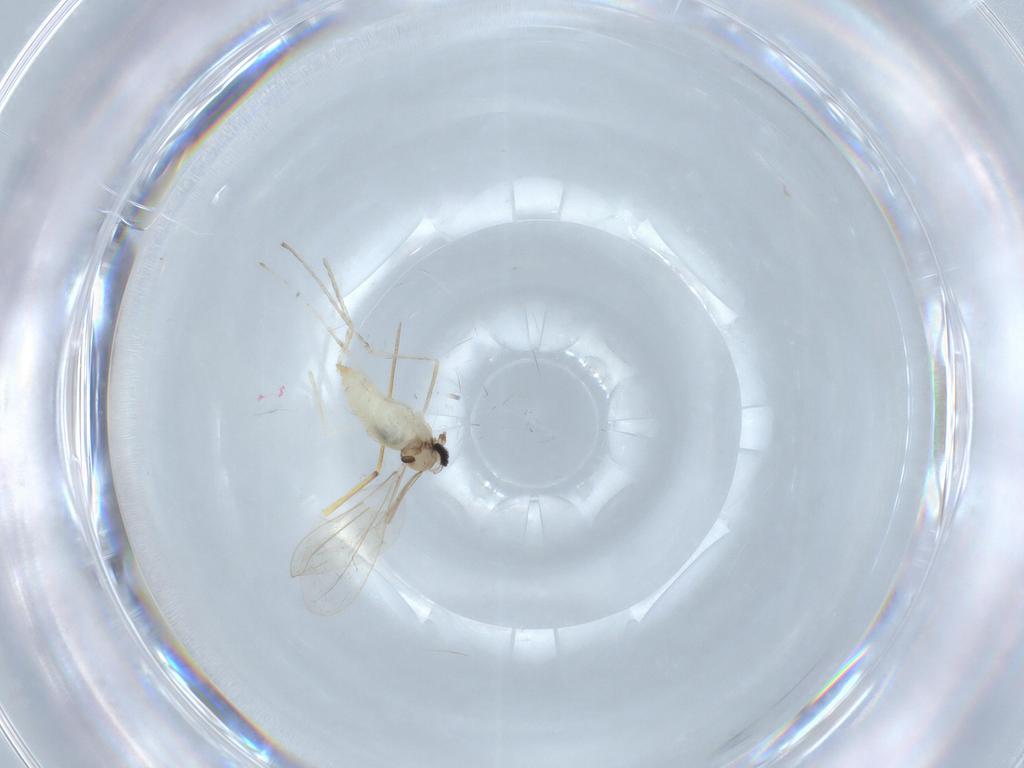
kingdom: Animalia
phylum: Arthropoda
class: Insecta
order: Diptera
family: Cecidomyiidae
